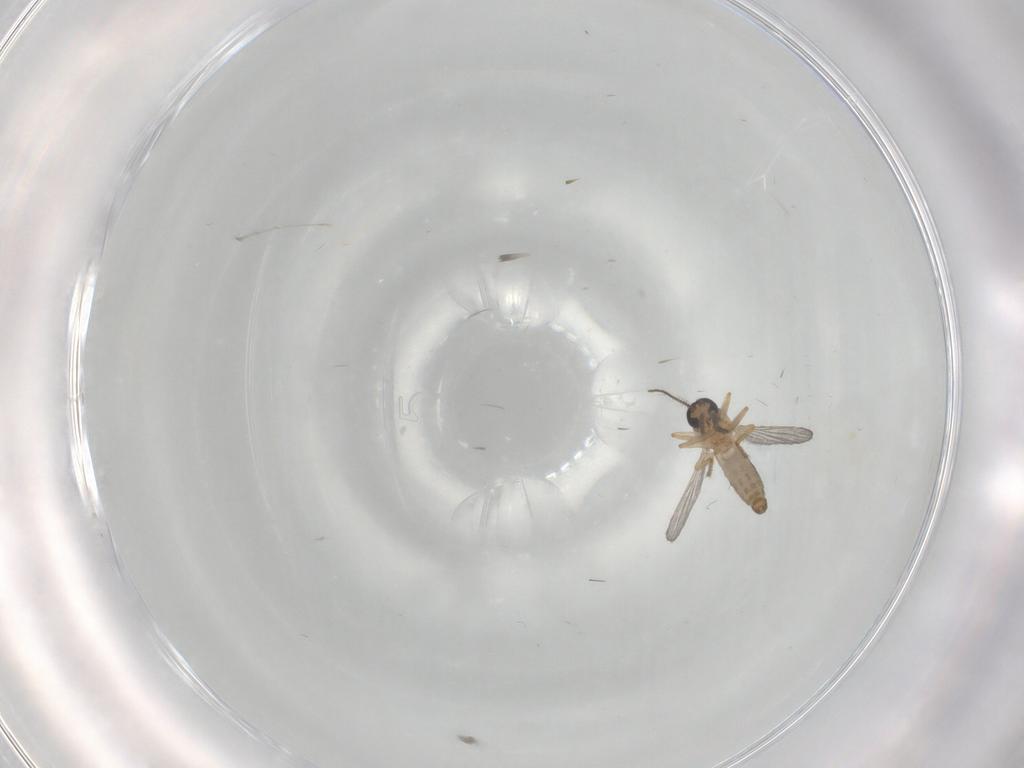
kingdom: Animalia
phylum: Arthropoda
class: Insecta
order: Diptera
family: Cecidomyiidae
